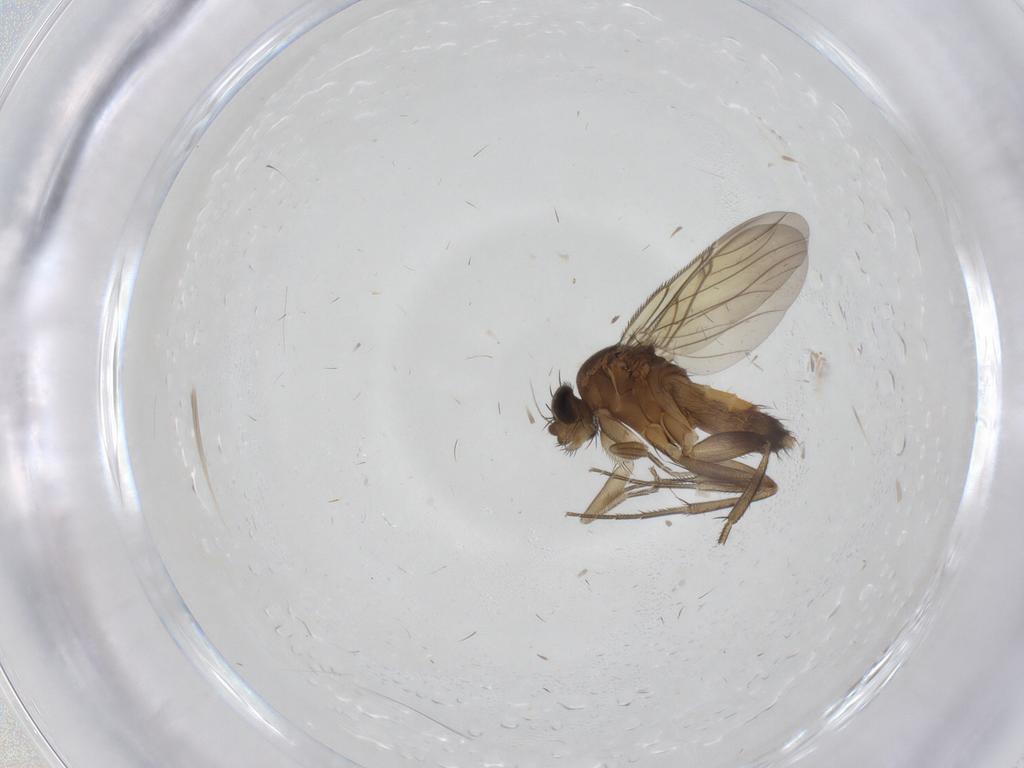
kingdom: Animalia
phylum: Arthropoda
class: Insecta
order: Diptera
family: Phoridae
